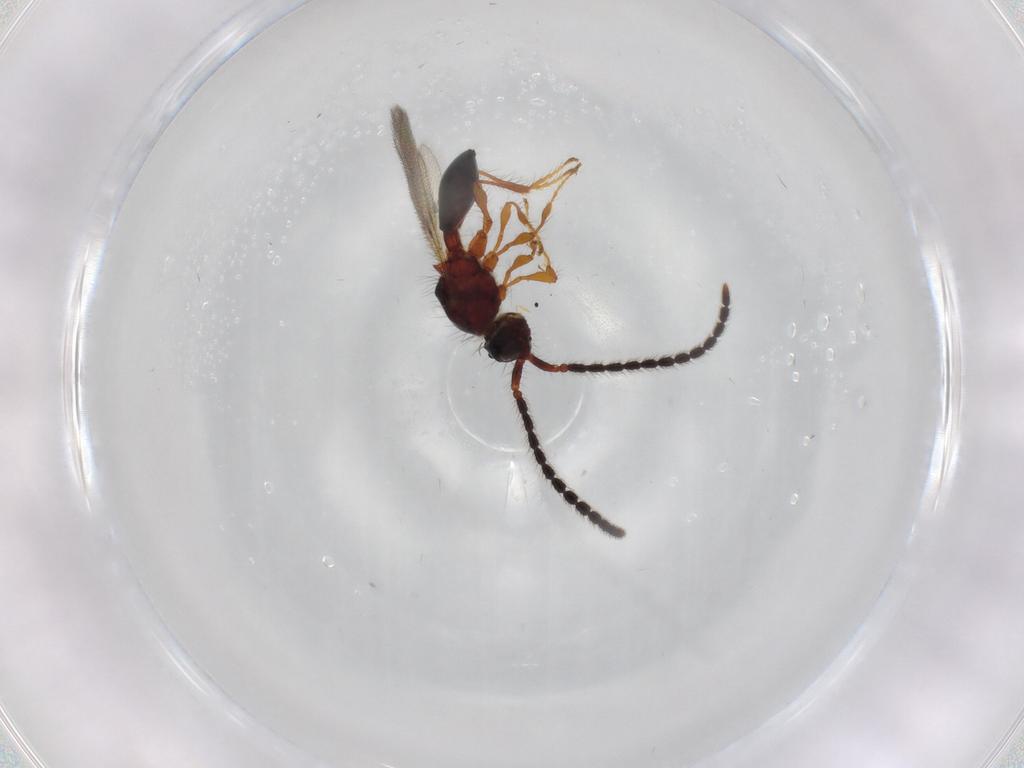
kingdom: Animalia
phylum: Arthropoda
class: Insecta
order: Hymenoptera
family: Diapriidae
